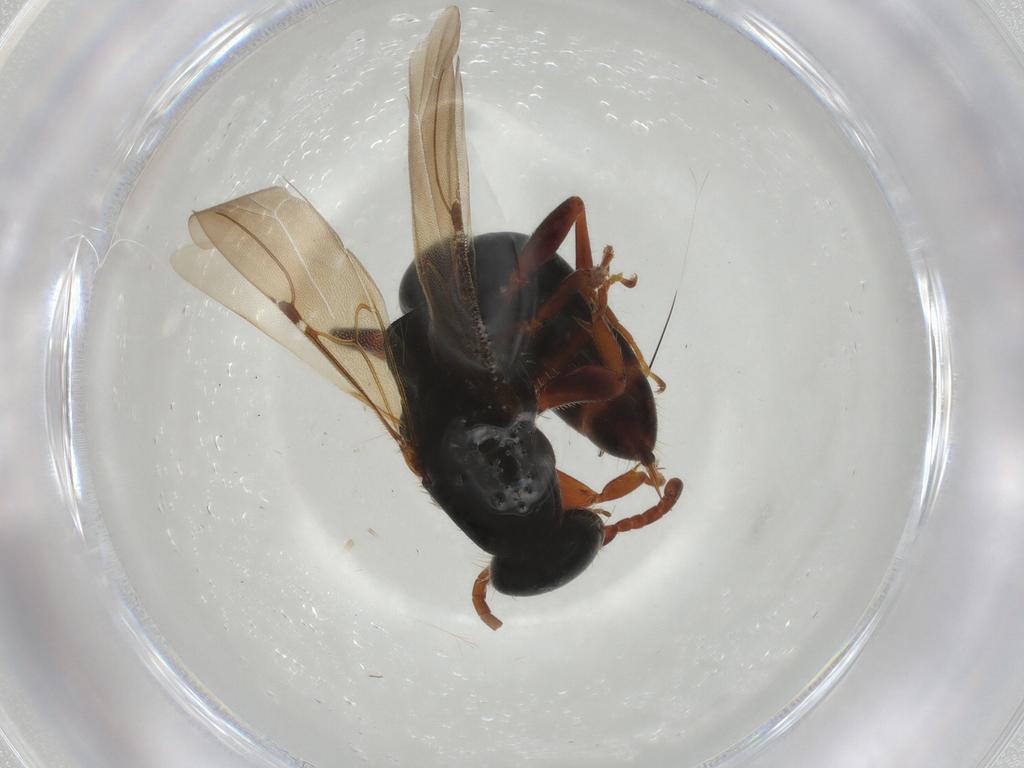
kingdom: Animalia
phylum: Arthropoda
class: Insecta
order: Hymenoptera
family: Bethylidae
